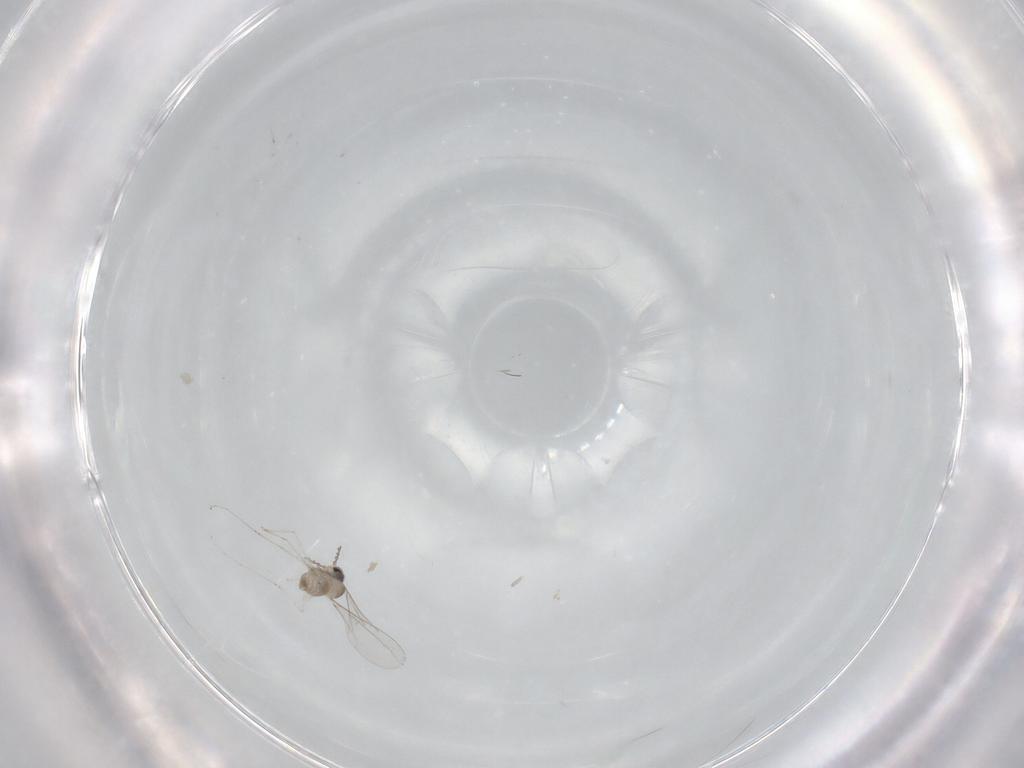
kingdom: Animalia
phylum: Arthropoda
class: Insecta
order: Diptera
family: Cecidomyiidae
